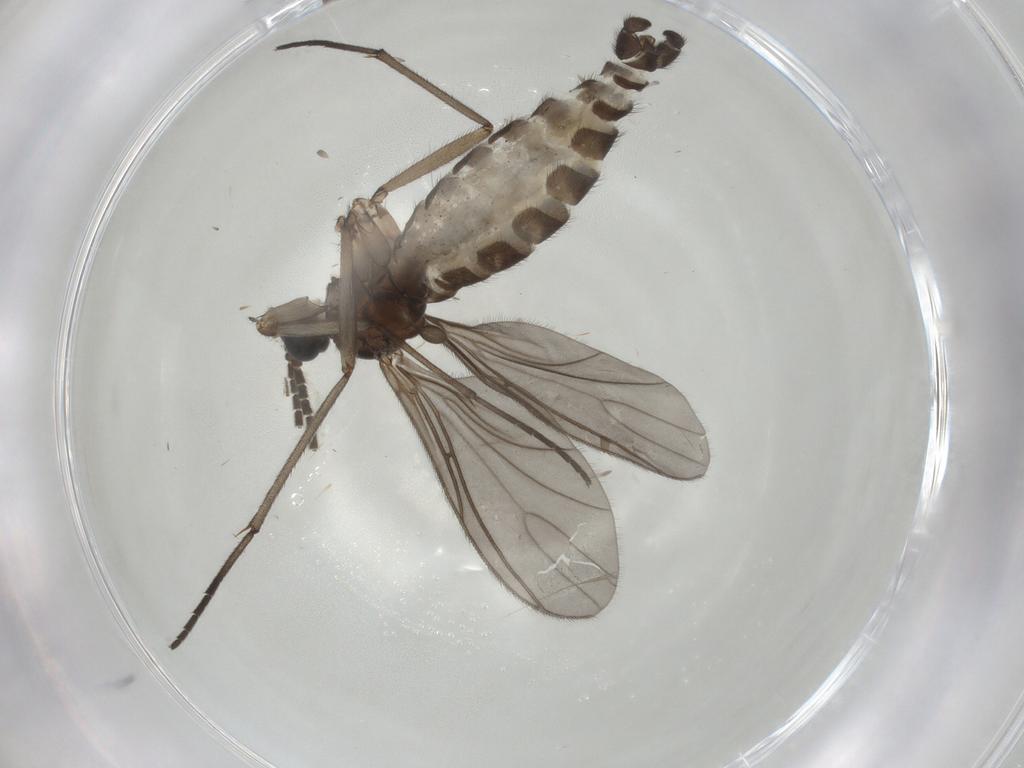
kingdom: Animalia
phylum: Arthropoda
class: Insecta
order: Diptera
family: Sciaridae
